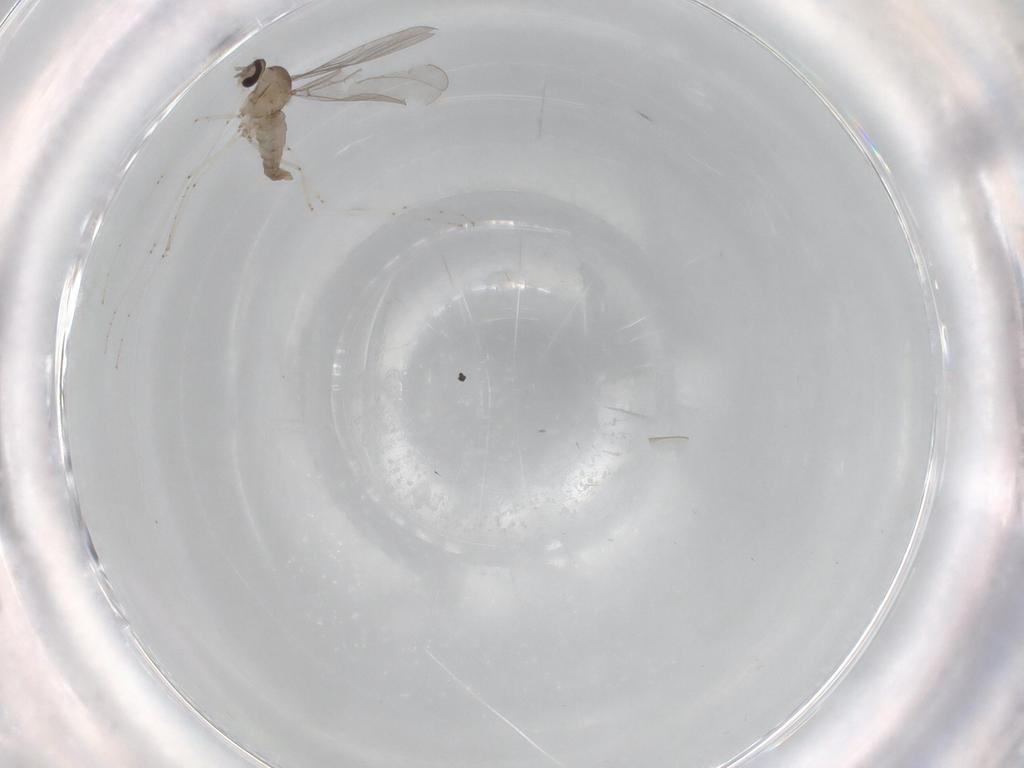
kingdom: Animalia
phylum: Arthropoda
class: Insecta
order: Diptera
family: Cecidomyiidae
